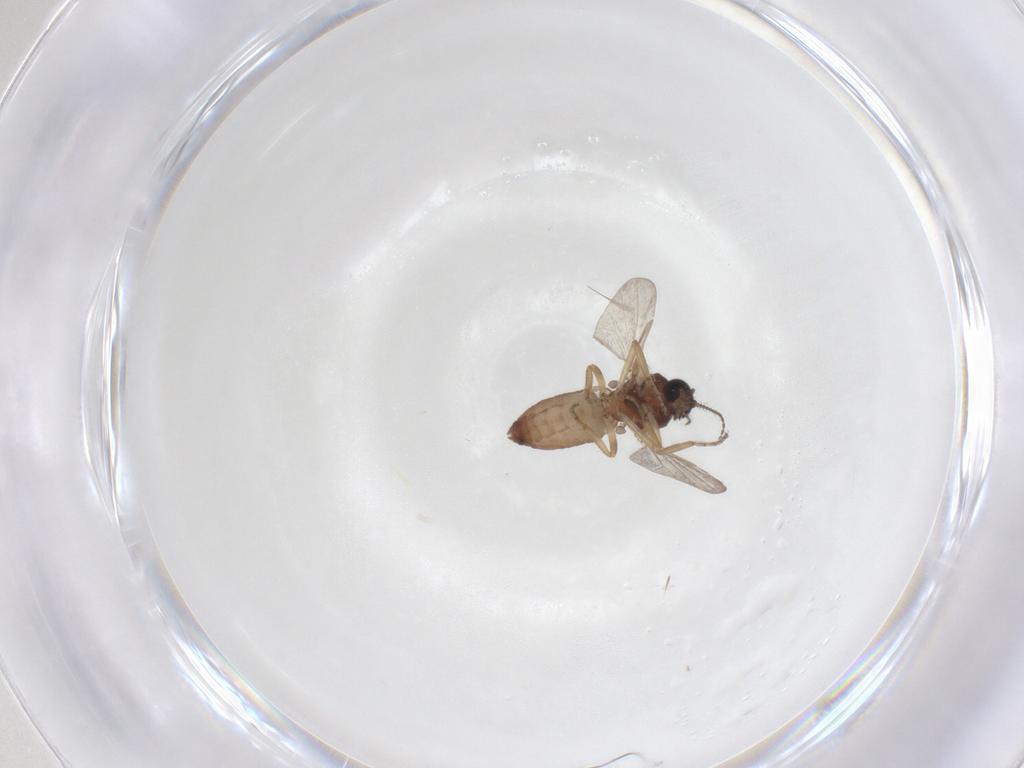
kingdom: Animalia
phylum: Arthropoda
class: Insecta
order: Diptera
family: Ceratopogonidae
